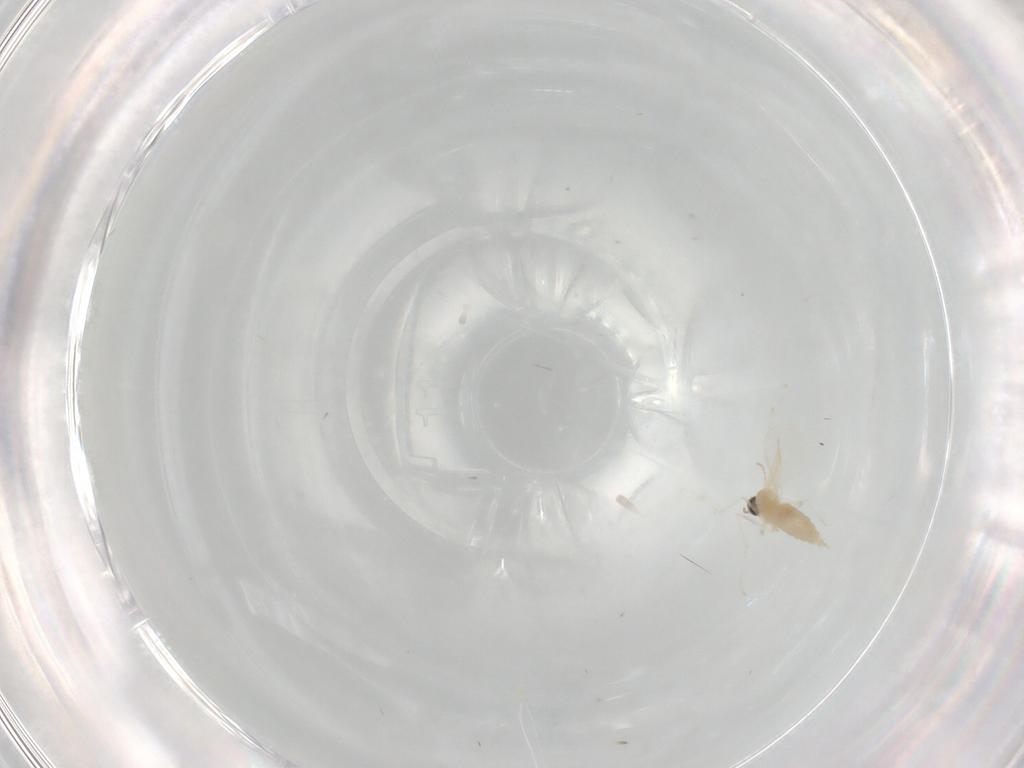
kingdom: Animalia
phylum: Arthropoda
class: Insecta
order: Diptera
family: Cecidomyiidae
